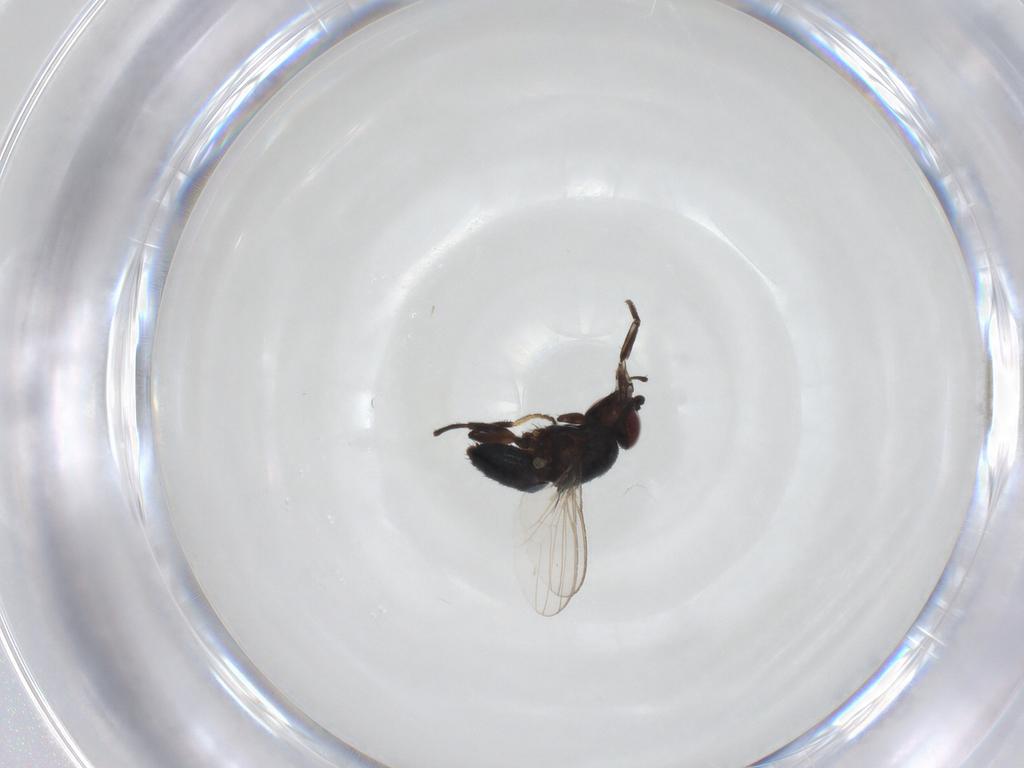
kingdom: Animalia
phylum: Arthropoda
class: Insecta
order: Diptera
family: Milichiidae
